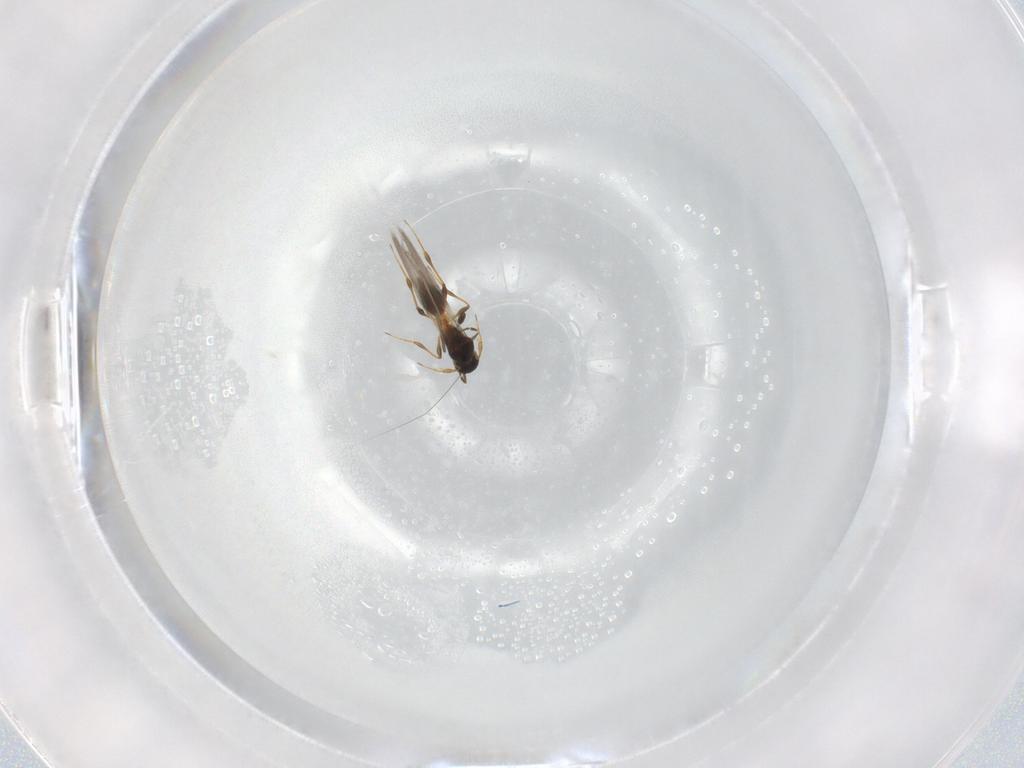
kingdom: Animalia
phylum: Arthropoda
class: Insecta
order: Hymenoptera
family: Platygastridae
